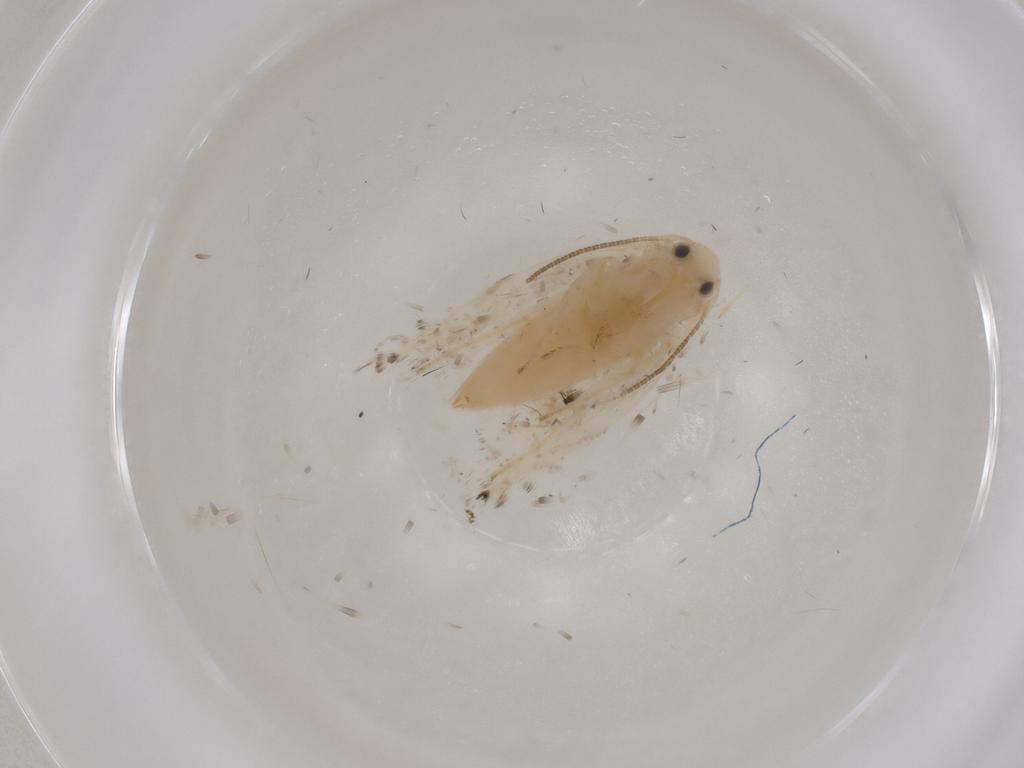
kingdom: Animalia
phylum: Arthropoda
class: Insecta
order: Lepidoptera
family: Gracillariidae
